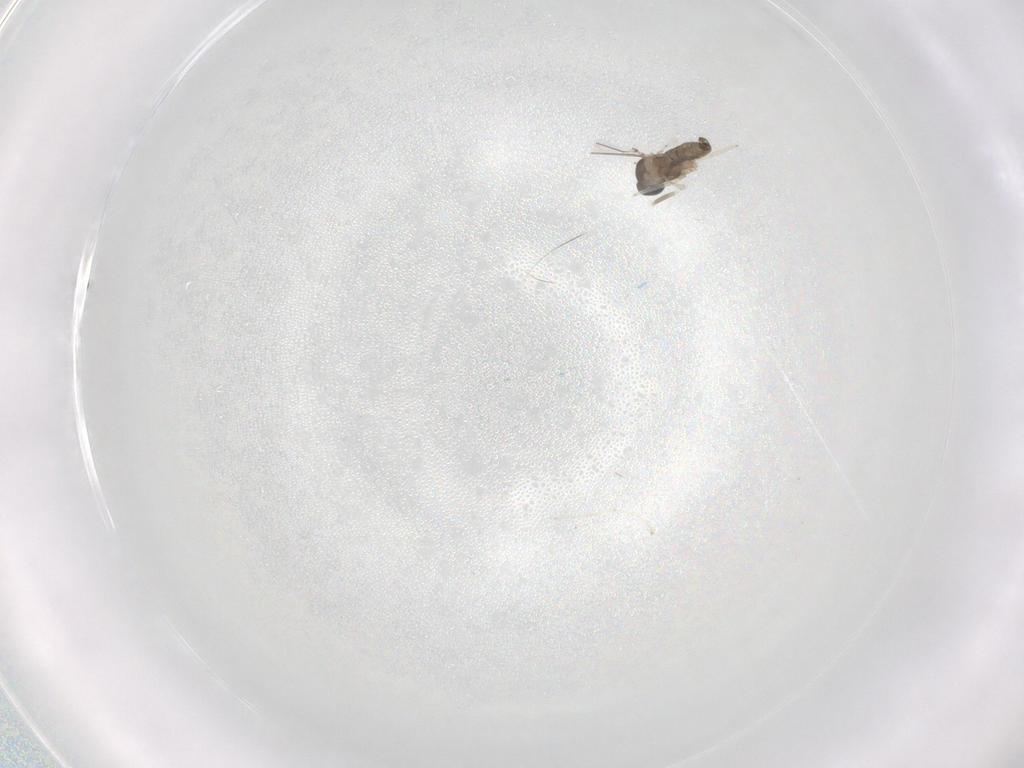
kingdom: Animalia
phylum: Arthropoda
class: Insecta
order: Diptera
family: Cecidomyiidae
